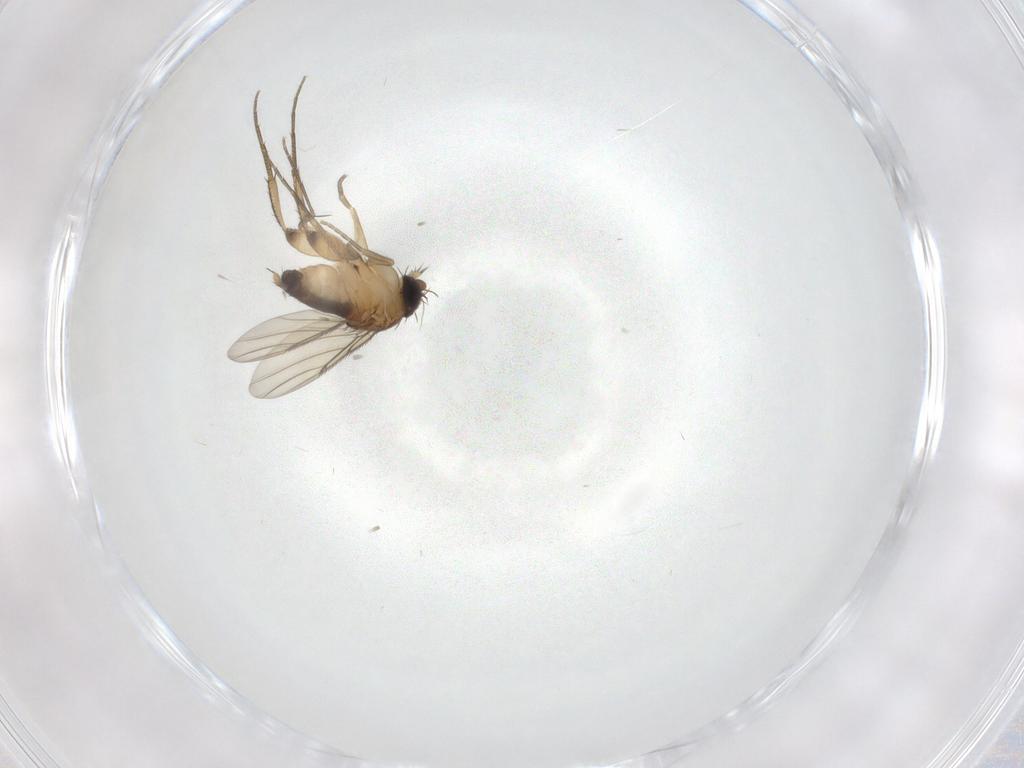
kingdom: Animalia
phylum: Arthropoda
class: Insecta
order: Diptera
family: Phoridae
